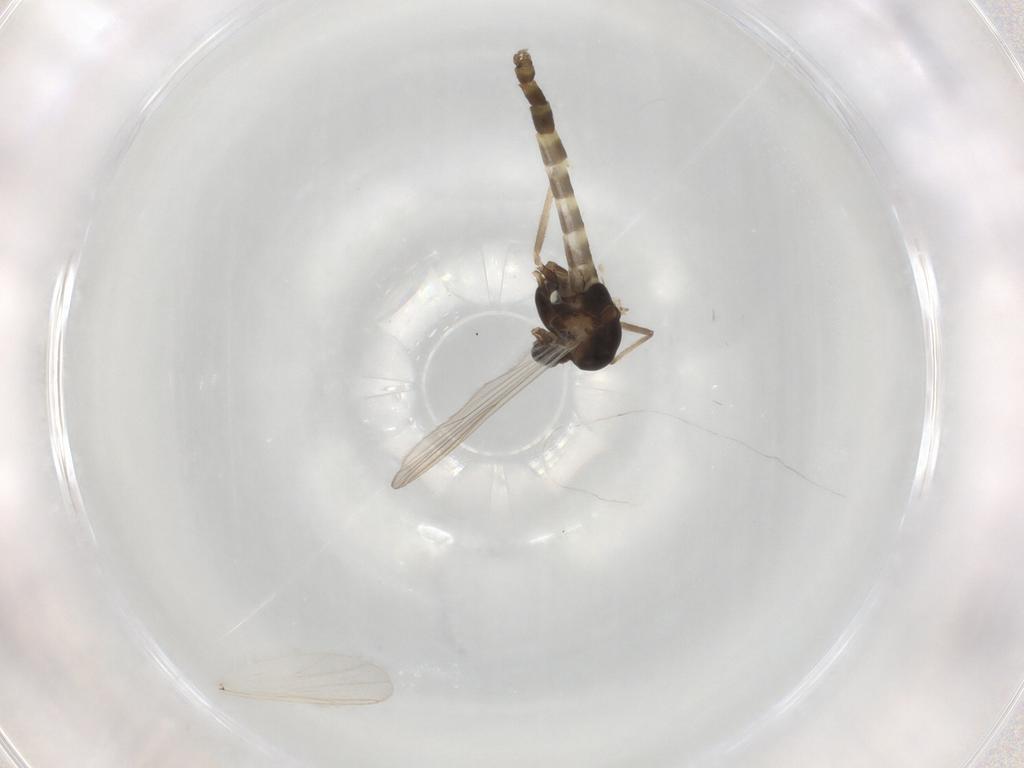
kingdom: Animalia
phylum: Arthropoda
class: Insecta
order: Diptera
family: Chironomidae
